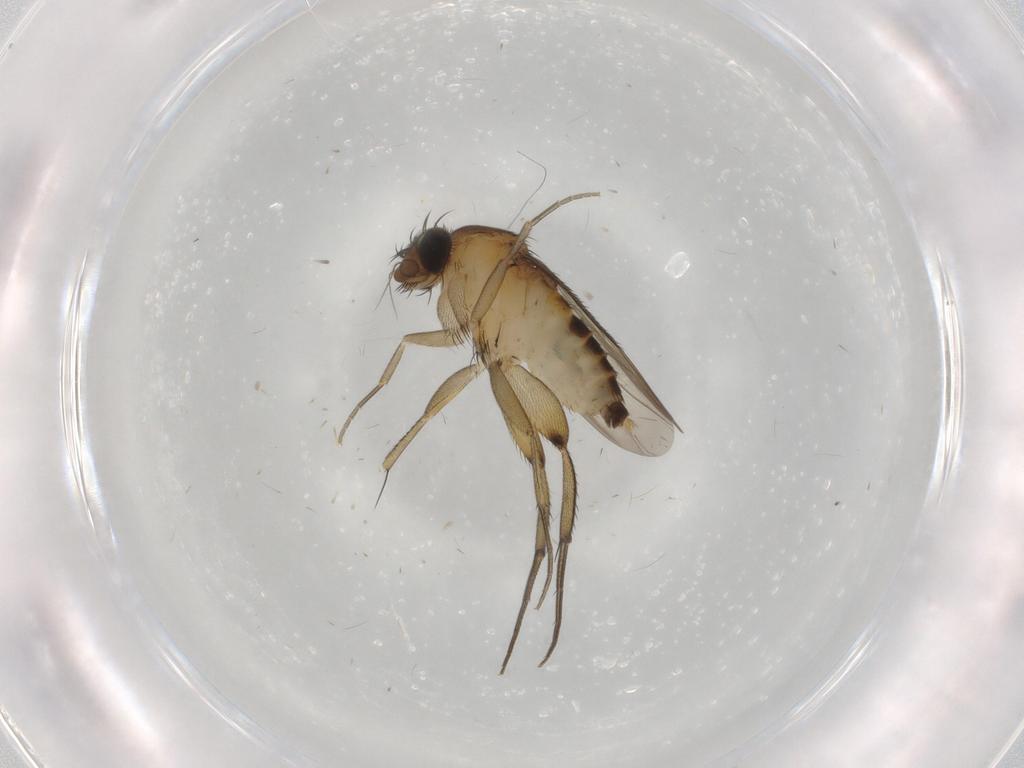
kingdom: Animalia
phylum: Arthropoda
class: Insecta
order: Diptera
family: Phoridae
